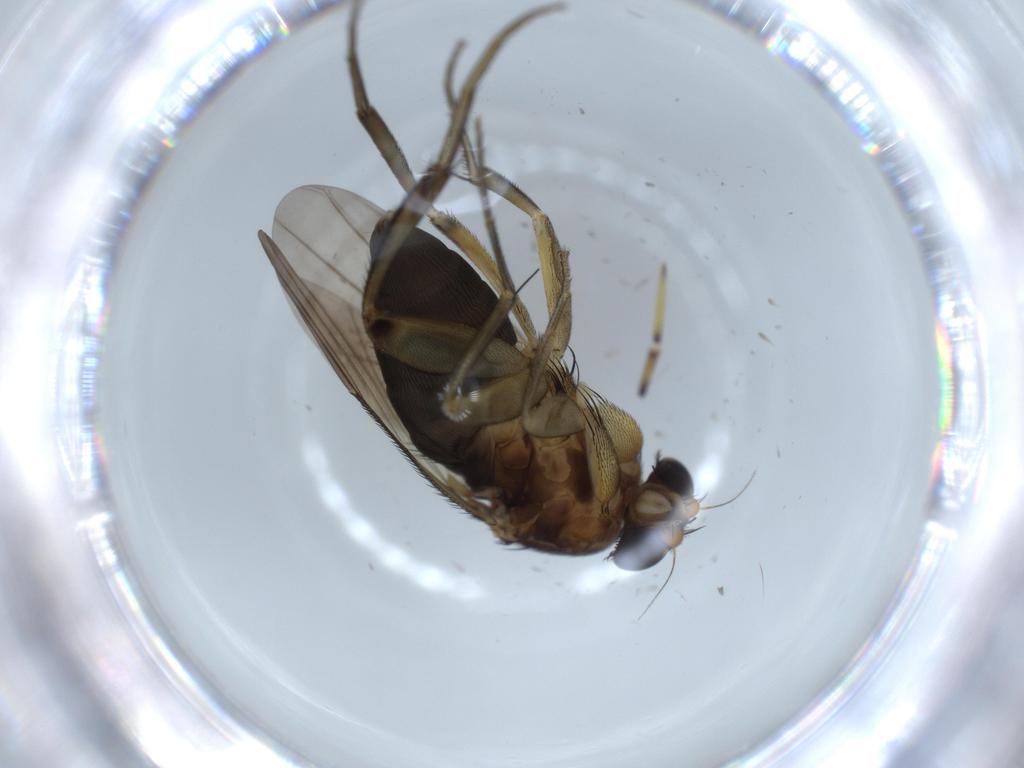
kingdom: Animalia
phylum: Arthropoda
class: Insecta
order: Diptera
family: Phoridae
